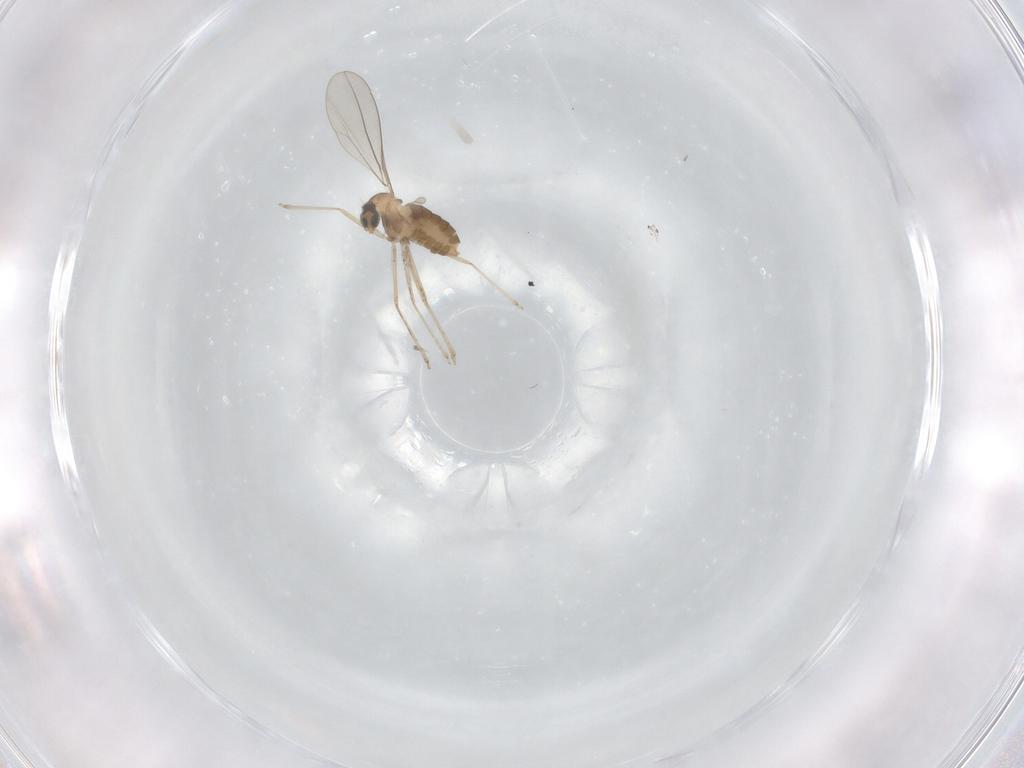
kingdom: Animalia
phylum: Arthropoda
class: Insecta
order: Diptera
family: Cecidomyiidae
